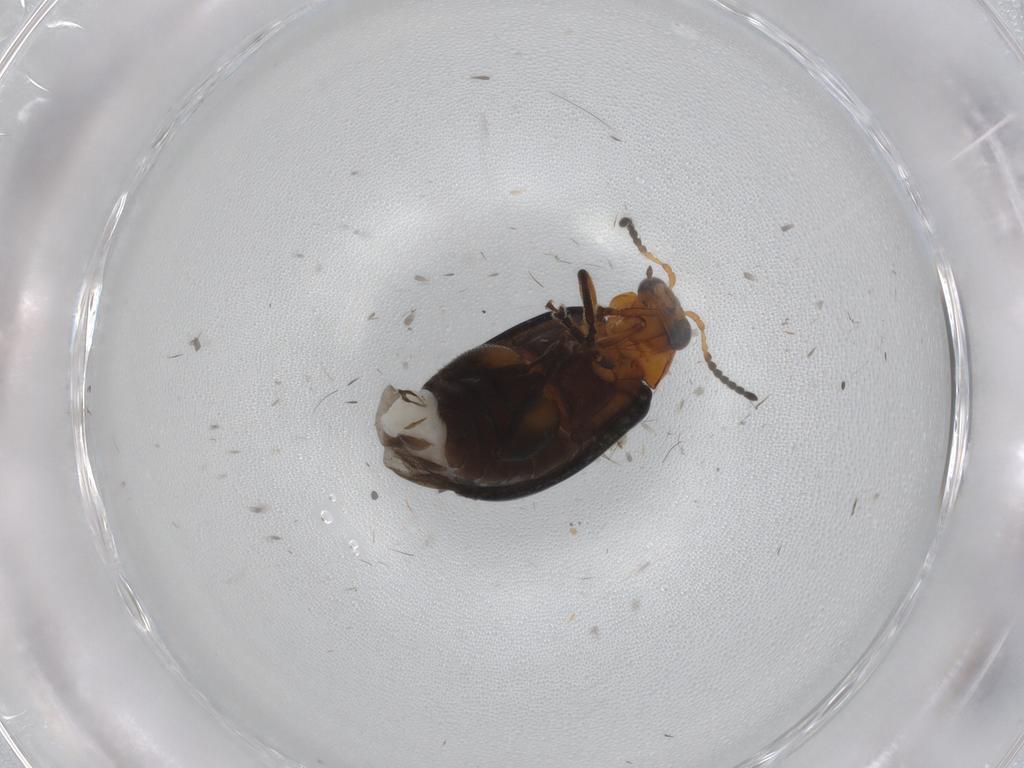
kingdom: Animalia
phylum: Arthropoda
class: Insecta
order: Coleoptera
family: Chrysomelidae
